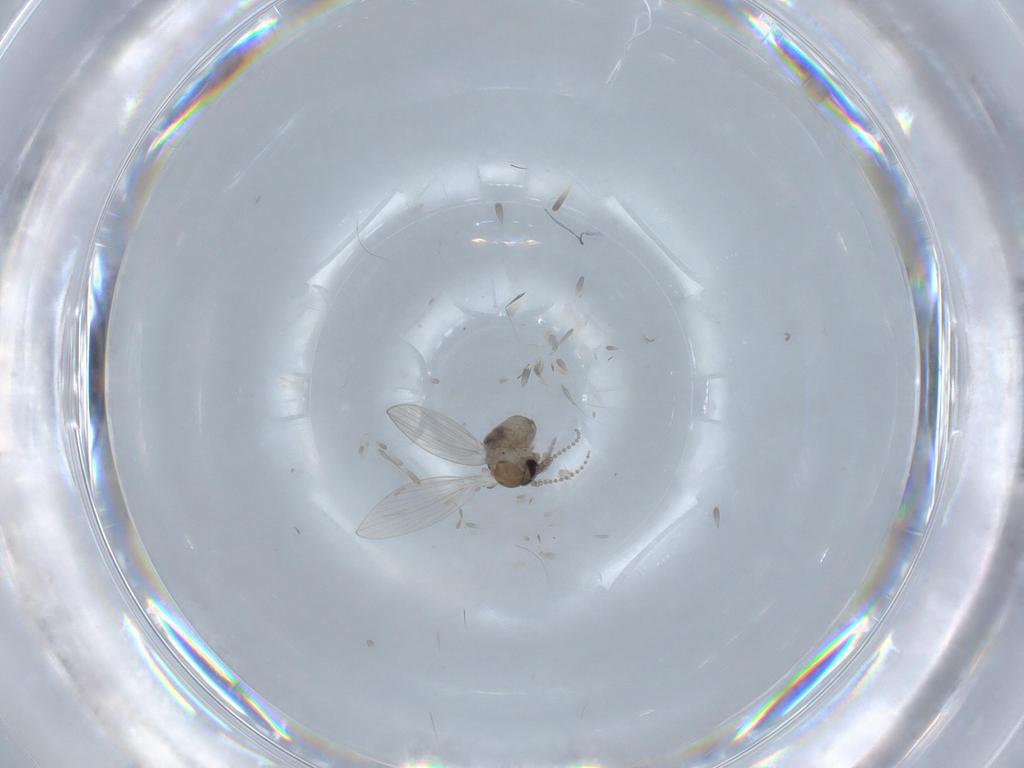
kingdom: Animalia
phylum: Arthropoda
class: Insecta
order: Diptera
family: Psychodidae
